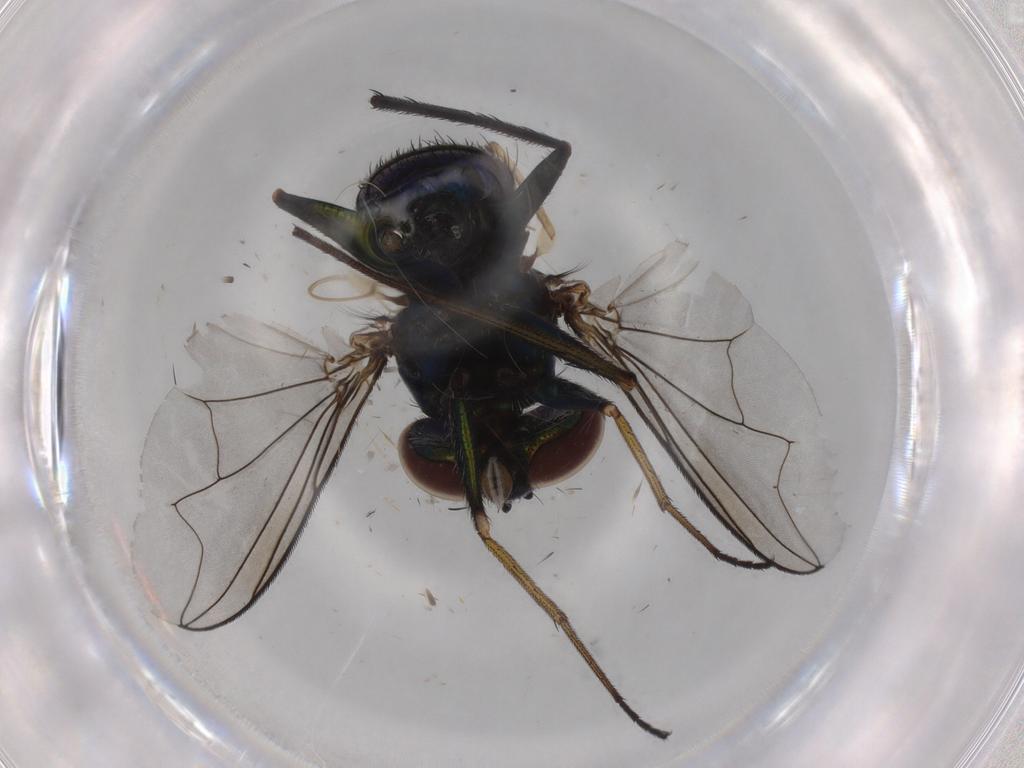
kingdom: Animalia
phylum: Arthropoda
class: Insecta
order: Diptera
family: Cecidomyiidae
